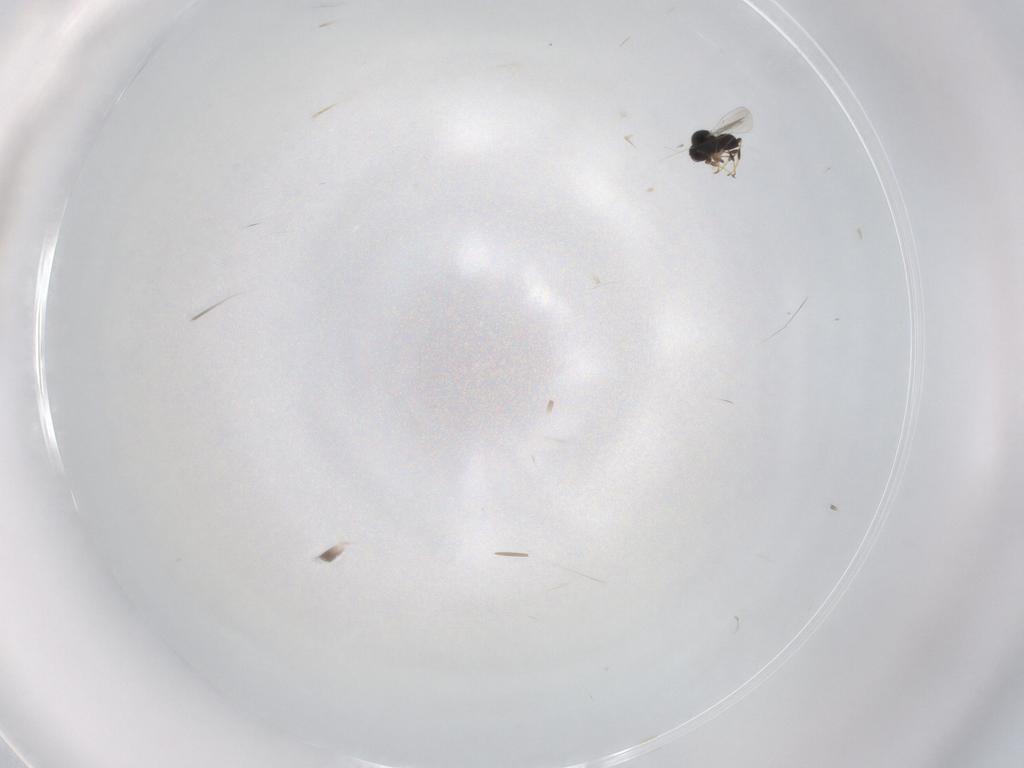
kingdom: Animalia
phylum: Arthropoda
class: Insecta
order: Hymenoptera
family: Platygastridae
